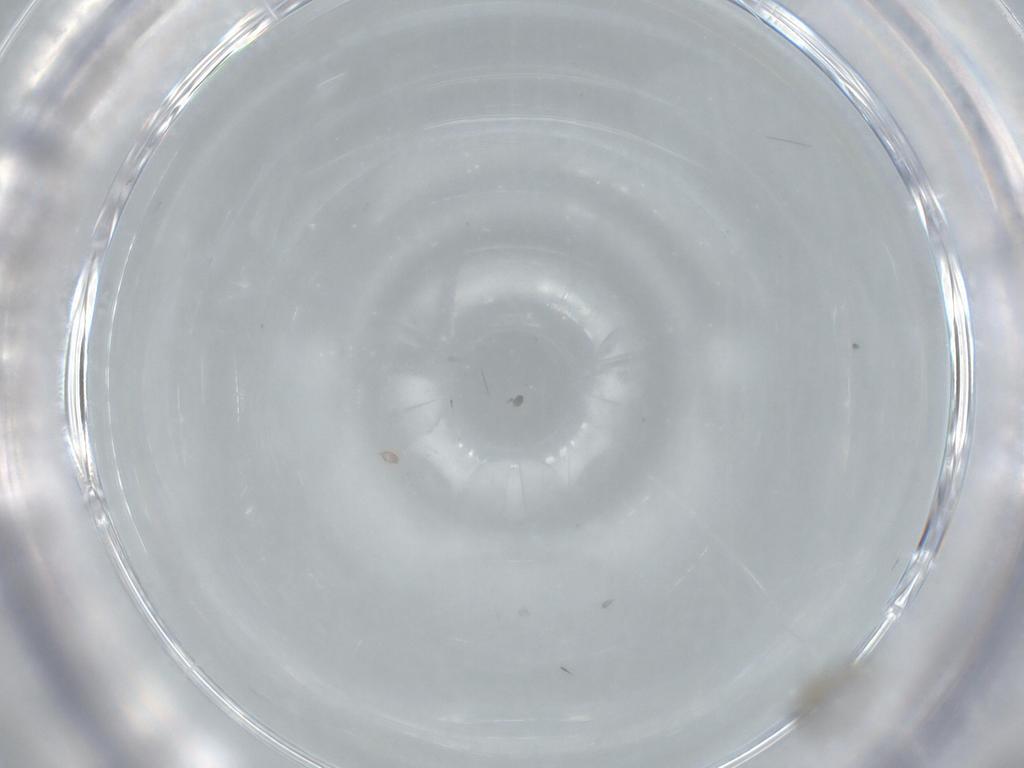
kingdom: Animalia
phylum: Arthropoda
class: Insecta
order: Diptera
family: Cecidomyiidae
